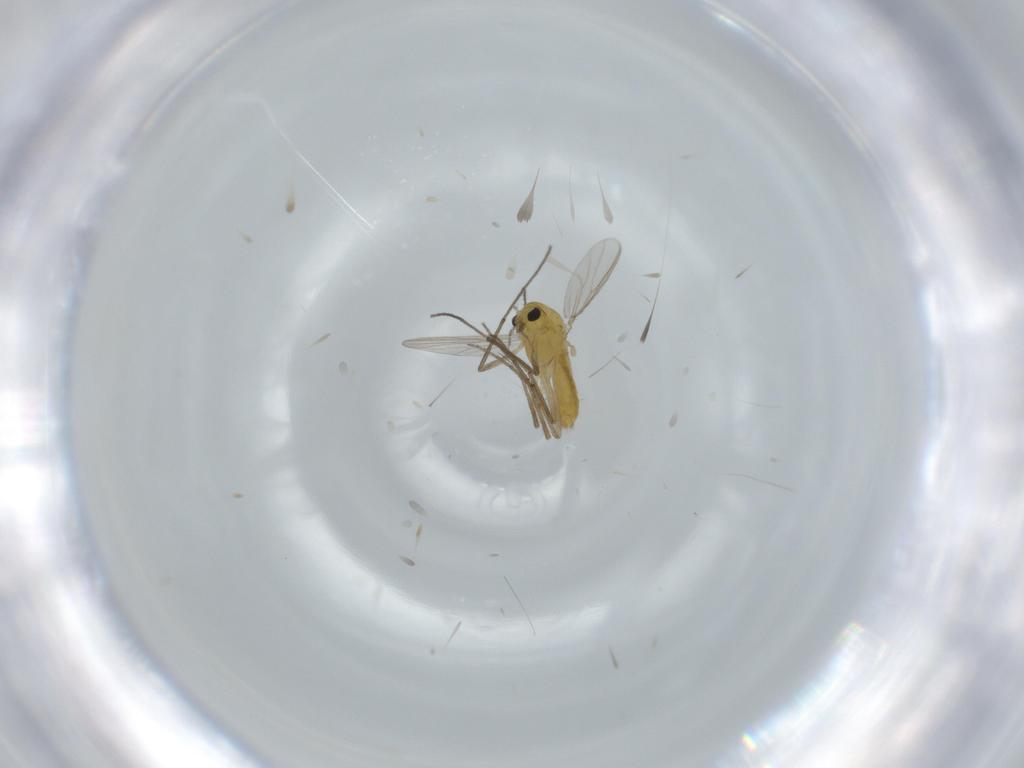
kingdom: Animalia
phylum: Arthropoda
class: Insecta
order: Diptera
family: Chironomidae
